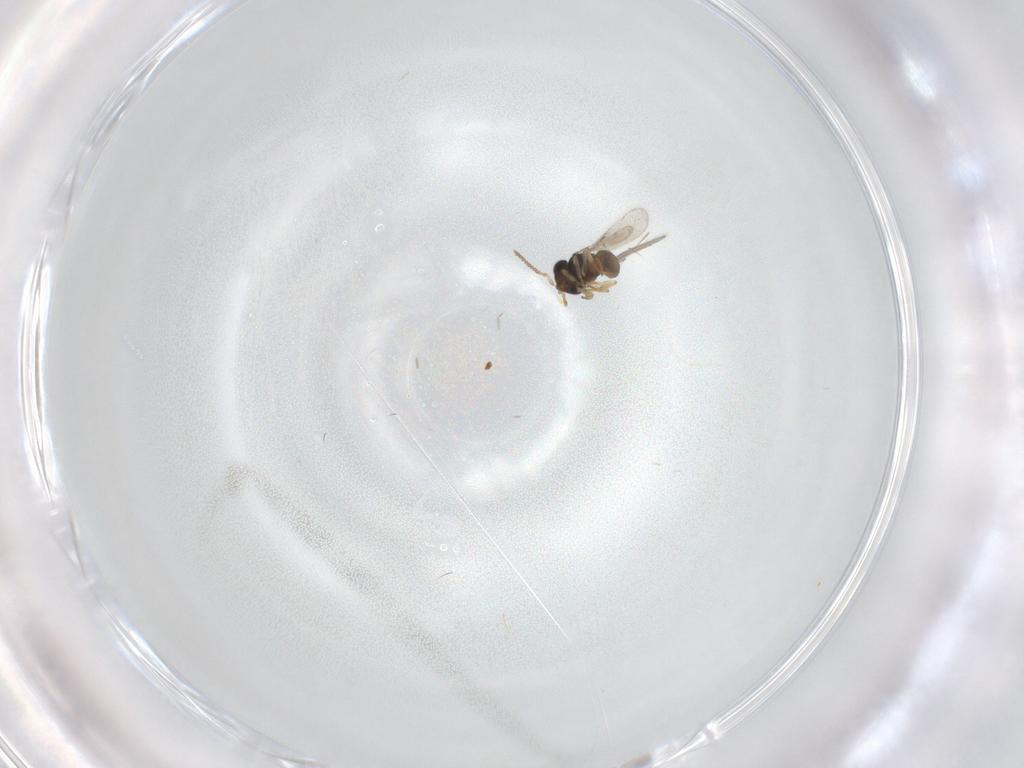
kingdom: Animalia
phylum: Arthropoda
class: Insecta
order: Hymenoptera
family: Scelionidae
